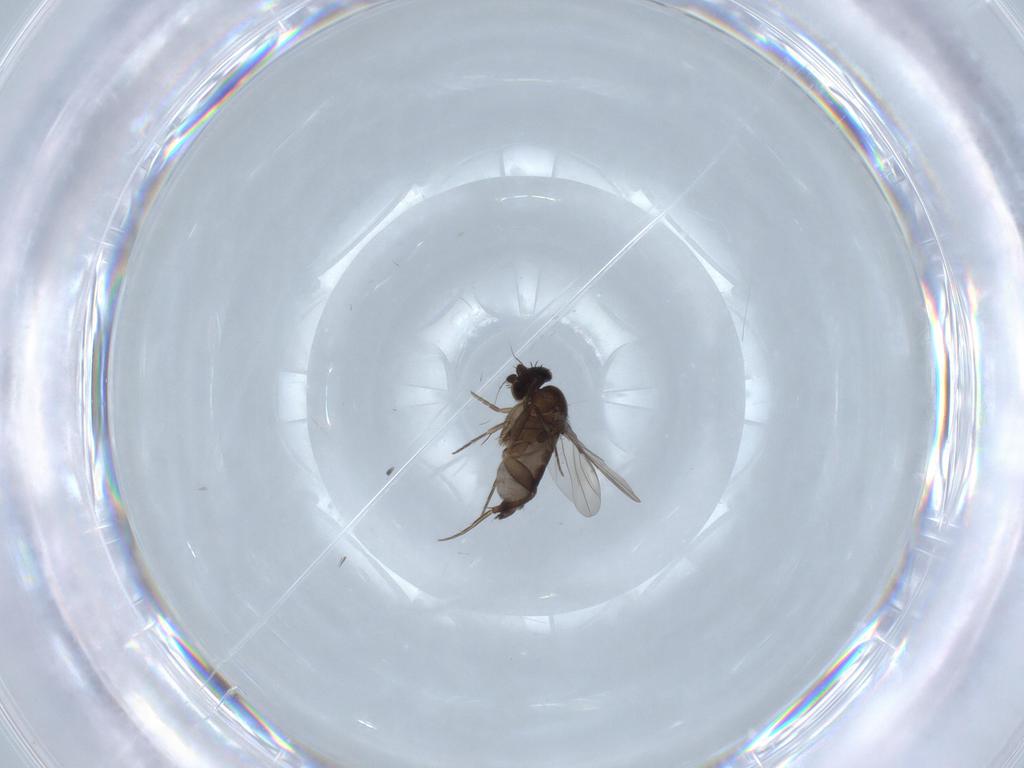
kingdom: Animalia
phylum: Arthropoda
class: Insecta
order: Diptera
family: Phoridae
